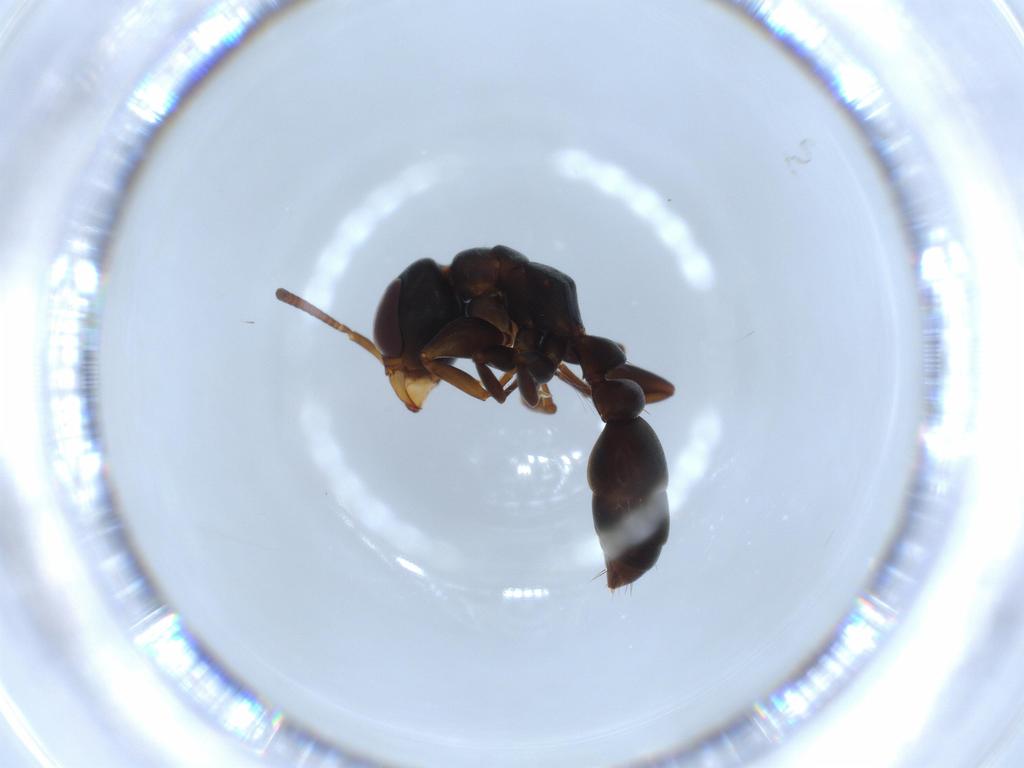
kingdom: Animalia
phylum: Arthropoda
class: Insecta
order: Hymenoptera
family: Formicidae
